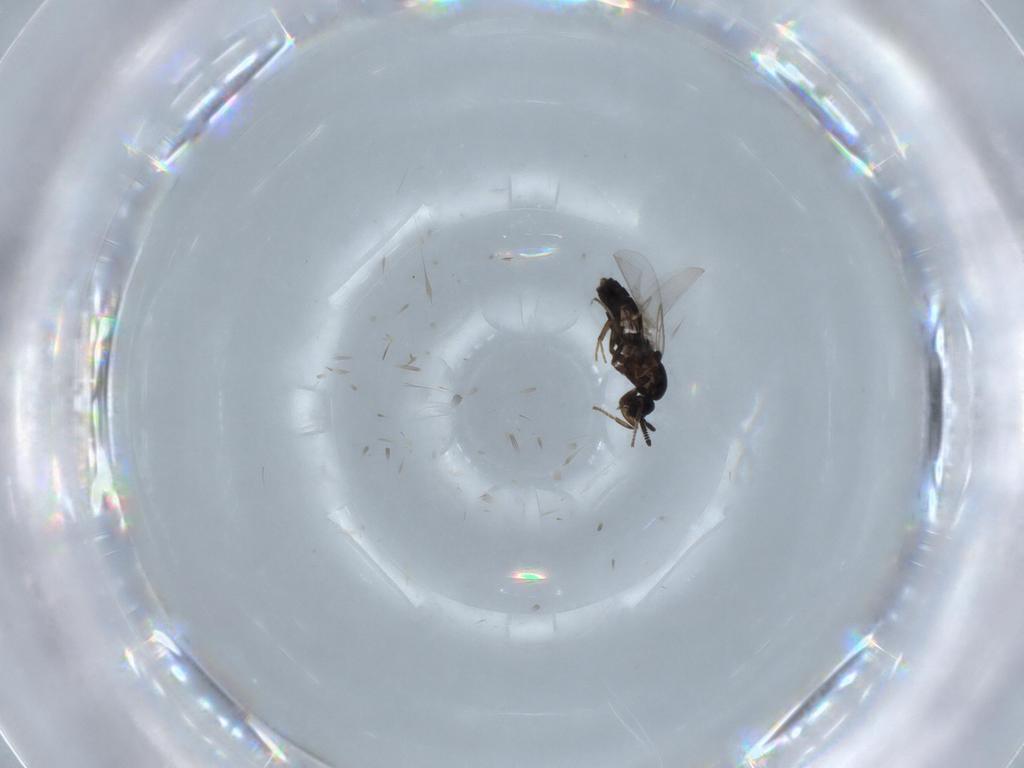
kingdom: Animalia
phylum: Arthropoda
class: Insecta
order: Diptera
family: Scatopsidae
